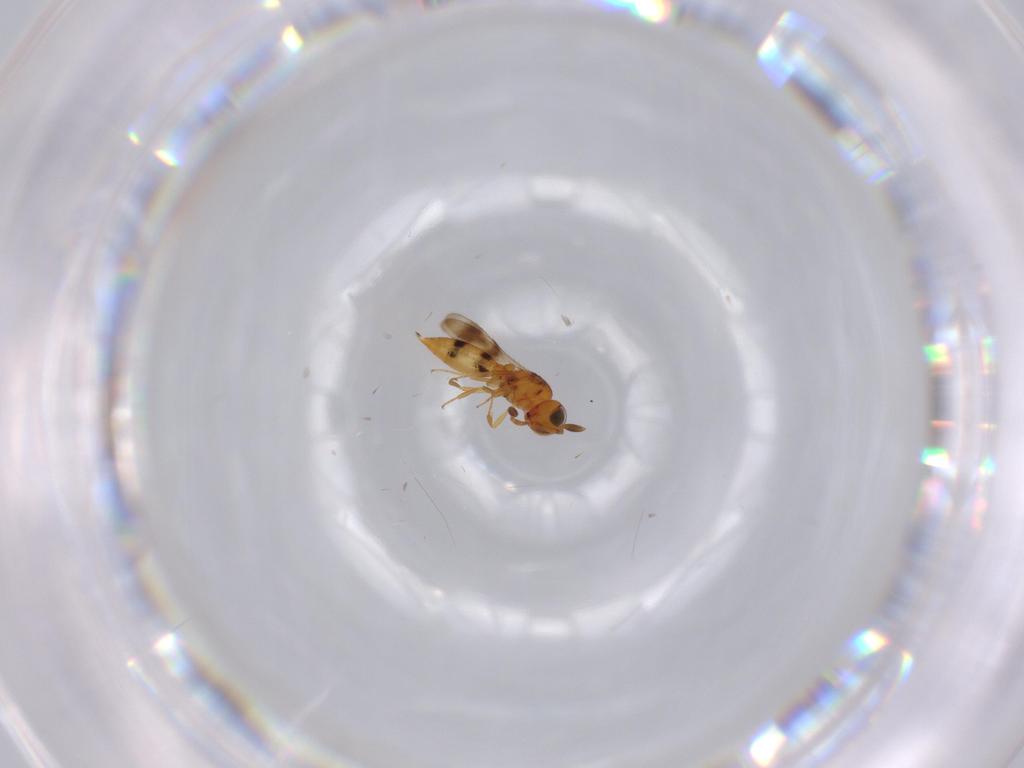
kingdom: Animalia
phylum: Arthropoda
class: Insecta
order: Hymenoptera
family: Scelionidae
